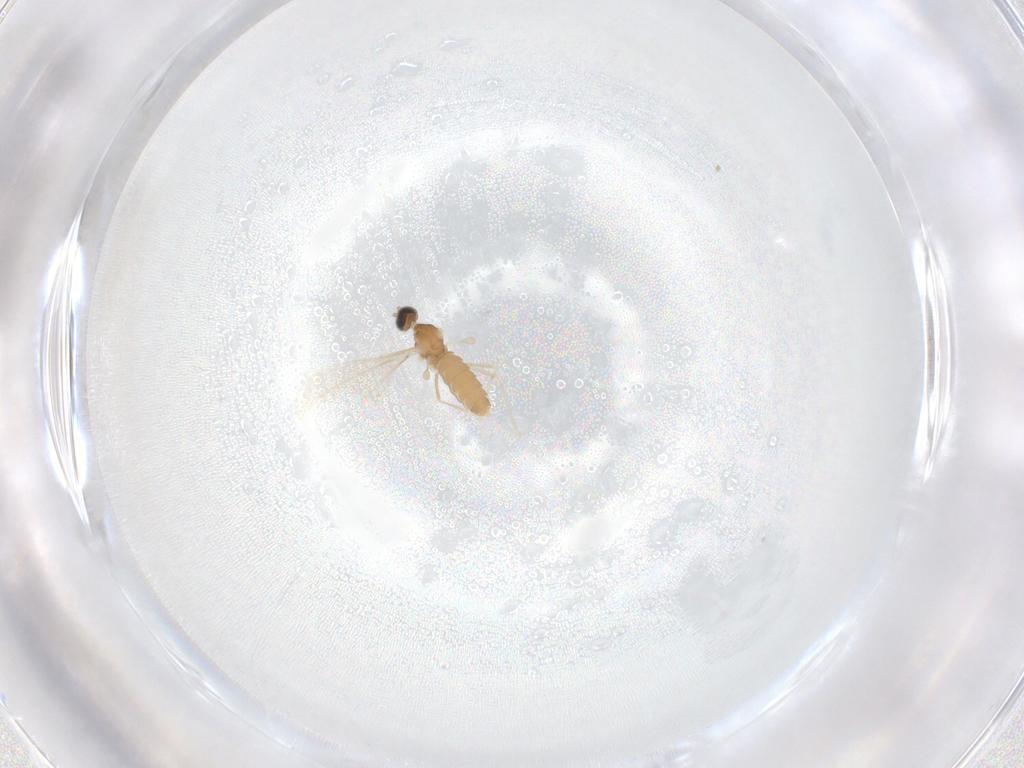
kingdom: Animalia
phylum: Arthropoda
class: Insecta
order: Diptera
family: Cecidomyiidae
